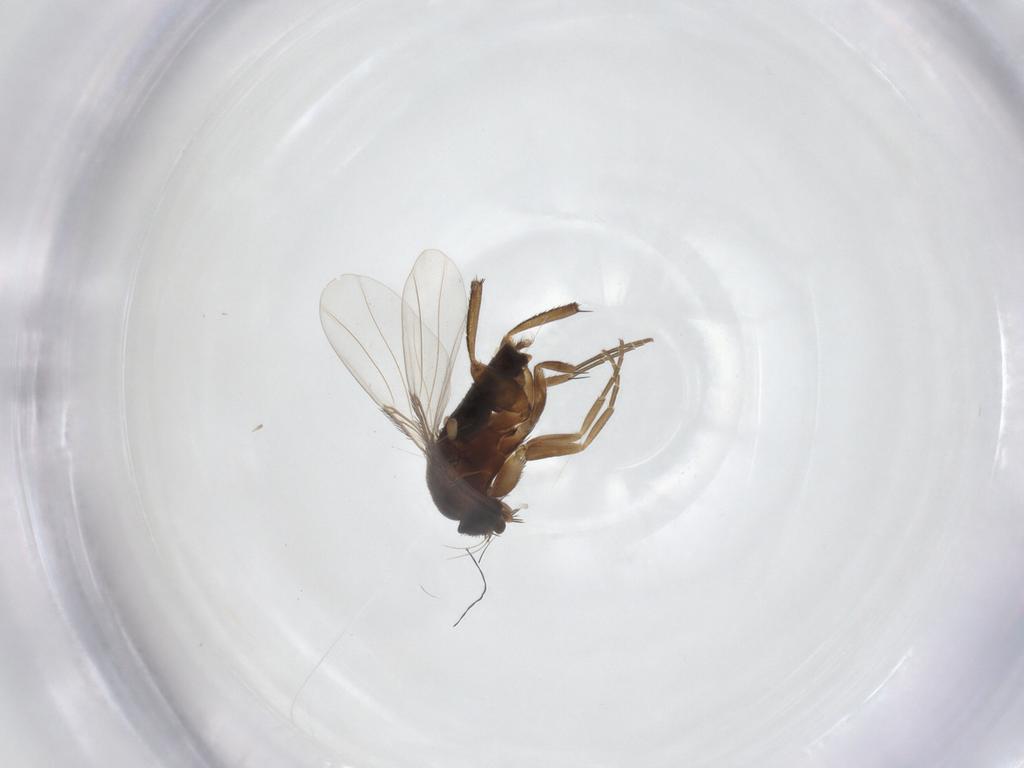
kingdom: Animalia
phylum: Arthropoda
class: Insecta
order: Diptera
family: Phoridae
